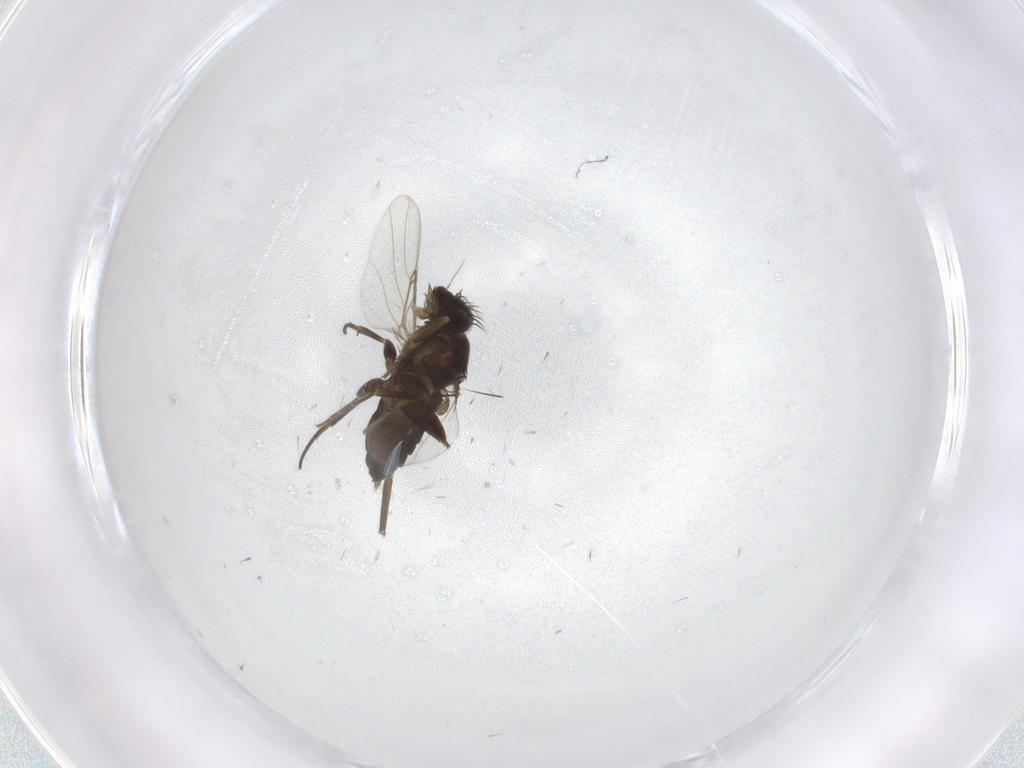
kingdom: Animalia
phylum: Arthropoda
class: Insecta
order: Diptera
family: Phoridae
